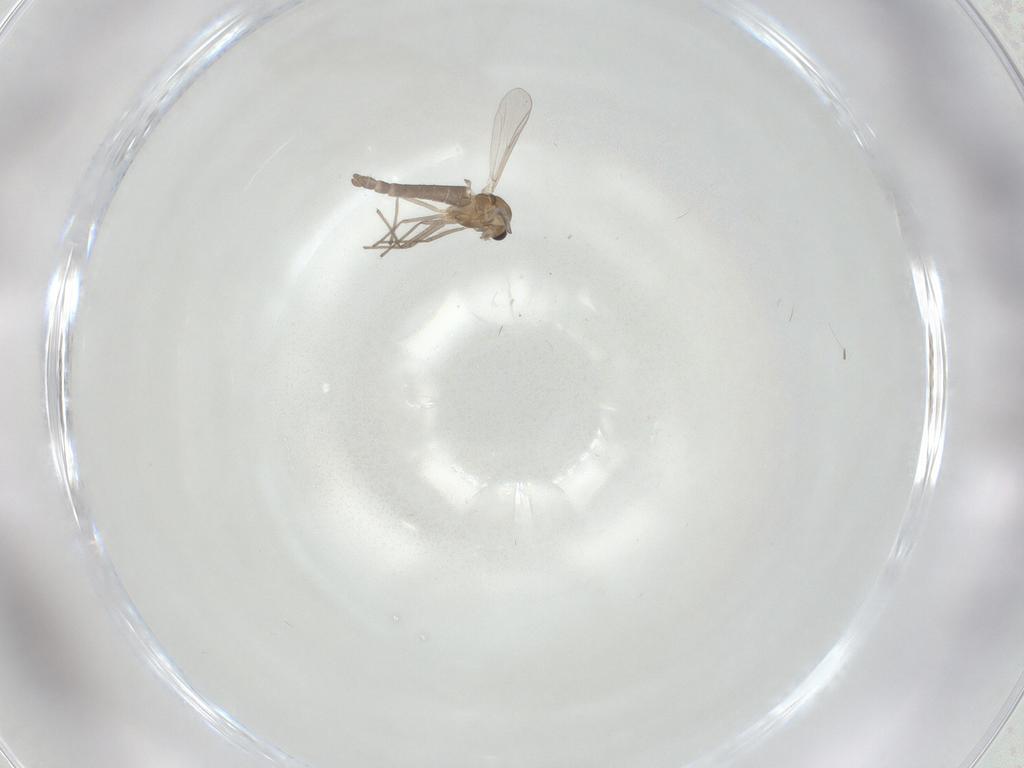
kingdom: Animalia
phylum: Arthropoda
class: Insecta
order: Diptera
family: Chironomidae
